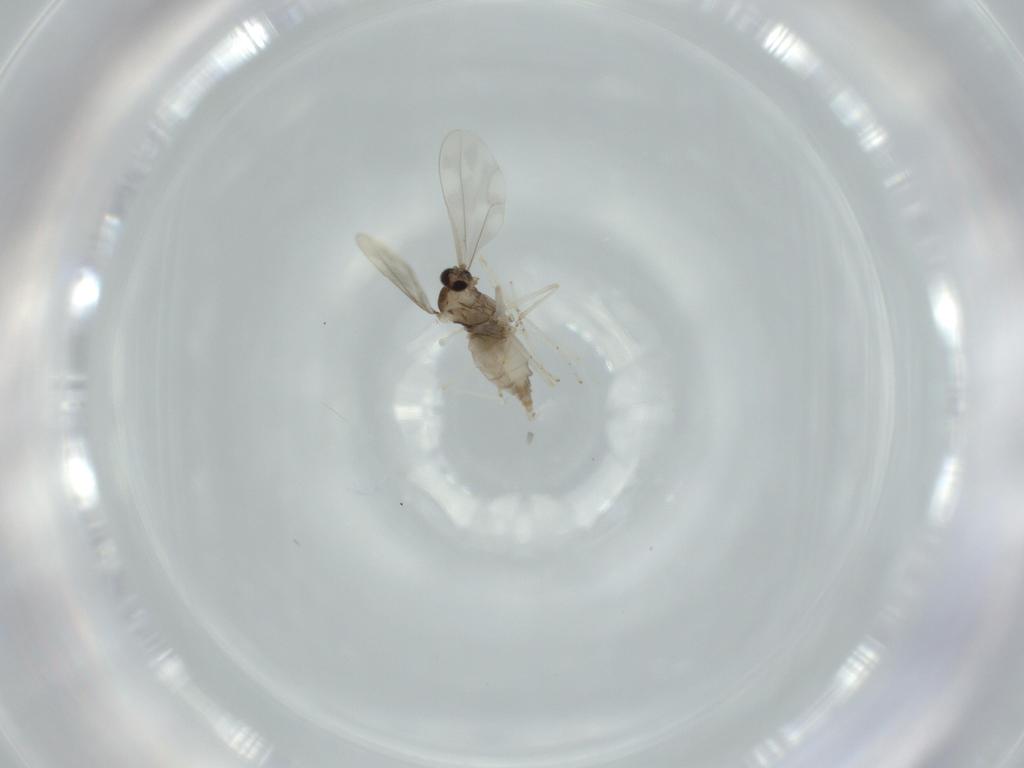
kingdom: Animalia
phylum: Arthropoda
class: Insecta
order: Diptera
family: Cecidomyiidae
